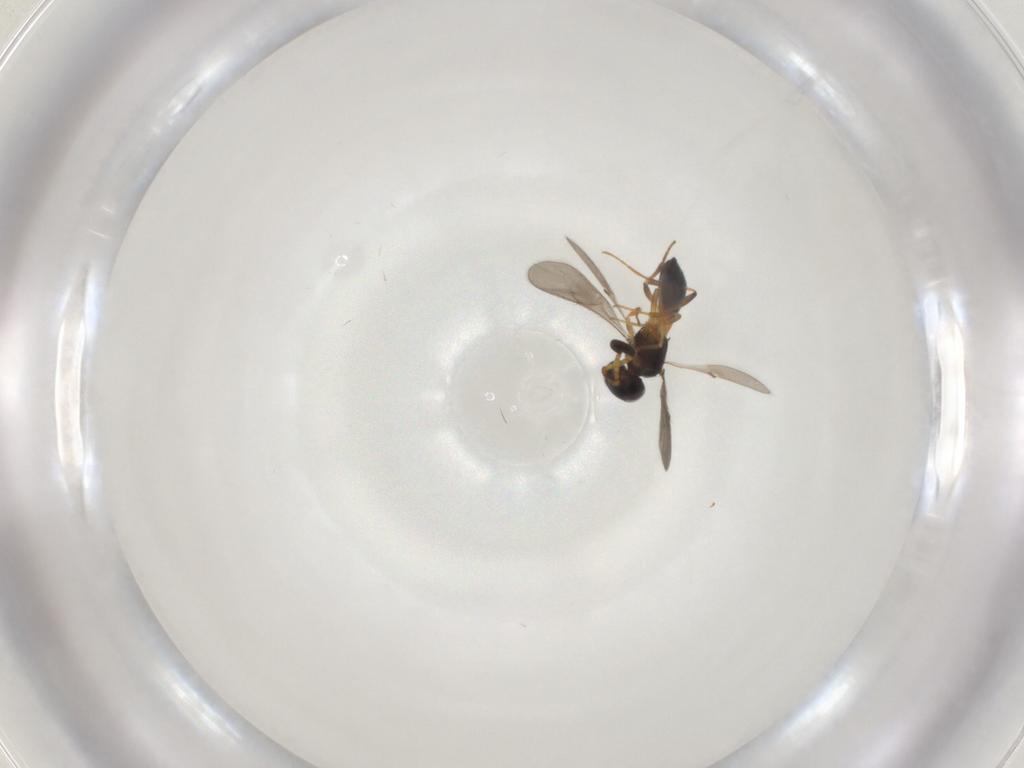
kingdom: Animalia
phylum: Arthropoda
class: Insecta
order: Hymenoptera
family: Scelionidae
